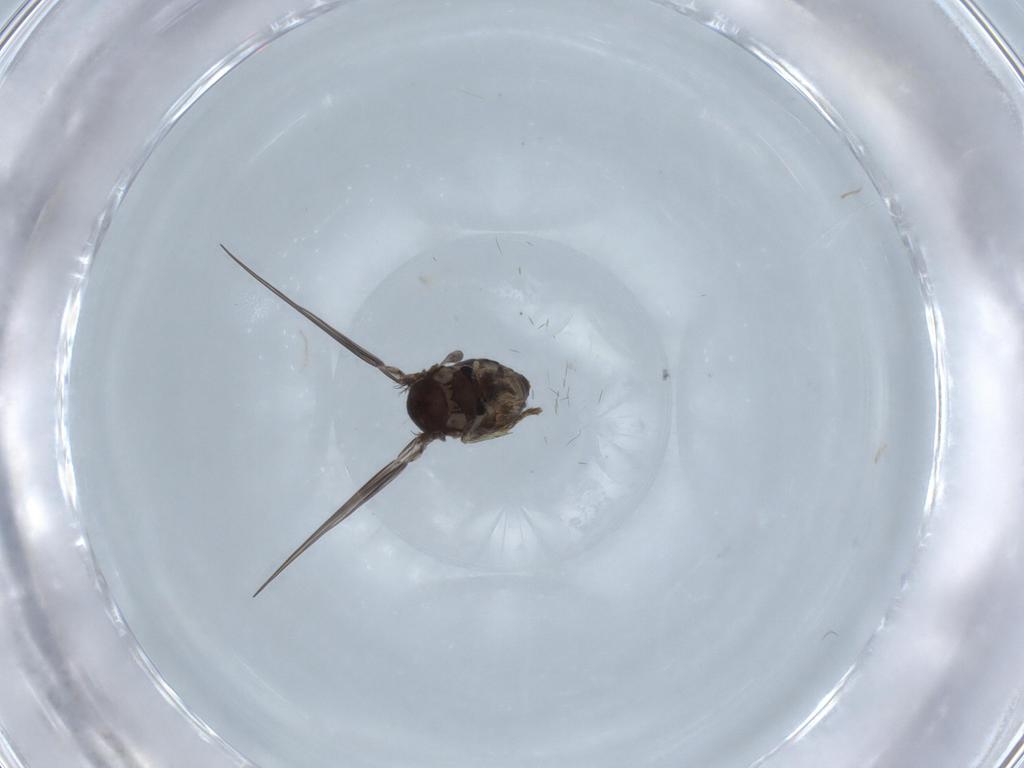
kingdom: Animalia
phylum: Arthropoda
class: Insecta
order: Diptera
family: Psychodidae
